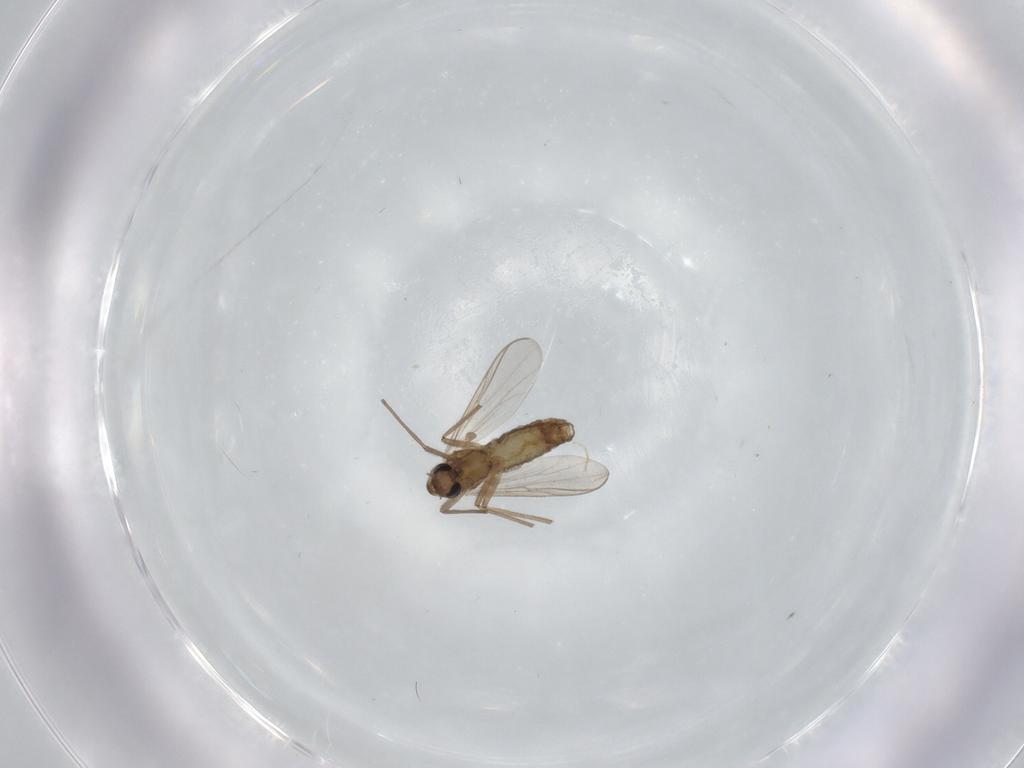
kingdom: Animalia
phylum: Arthropoda
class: Insecta
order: Diptera
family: Chironomidae
